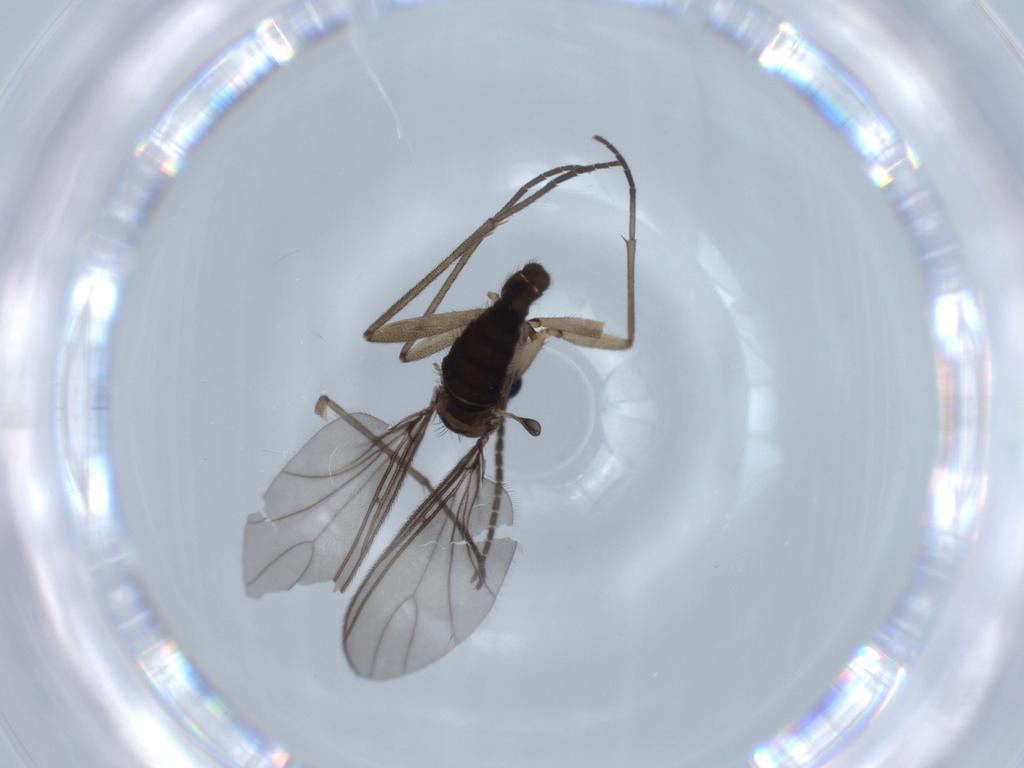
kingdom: Animalia
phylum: Arthropoda
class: Insecta
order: Diptera
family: Sciaridae
